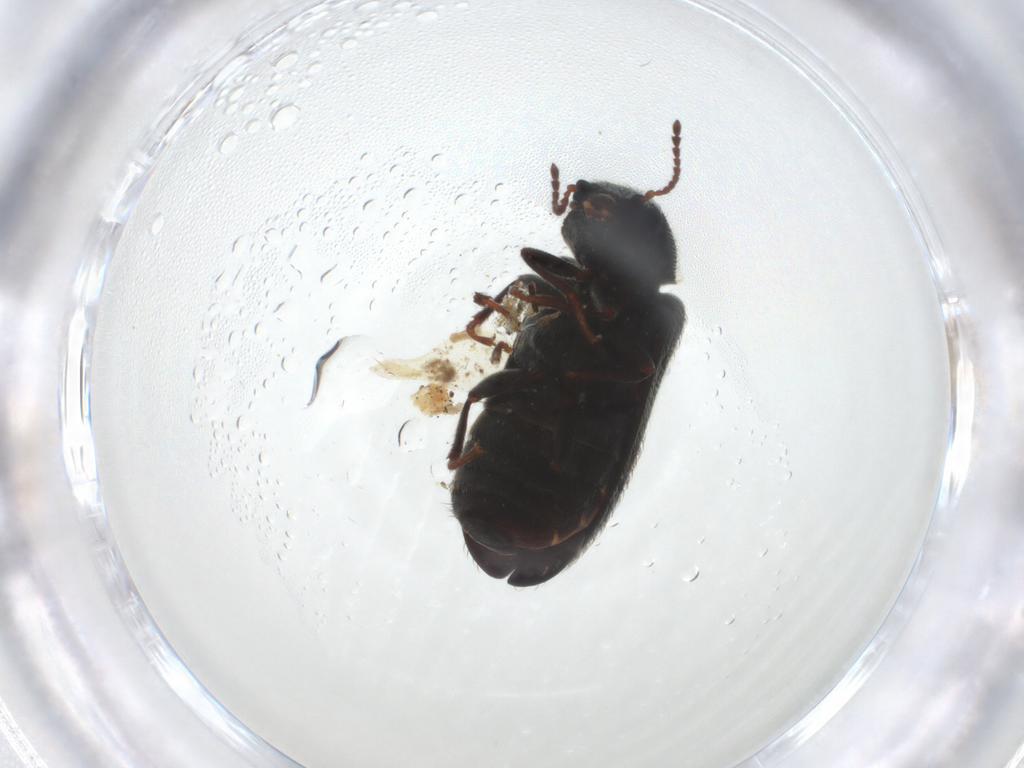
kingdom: Animalia
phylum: Arthropoda
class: Insecta
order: Coleoptera
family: Dasytidae
